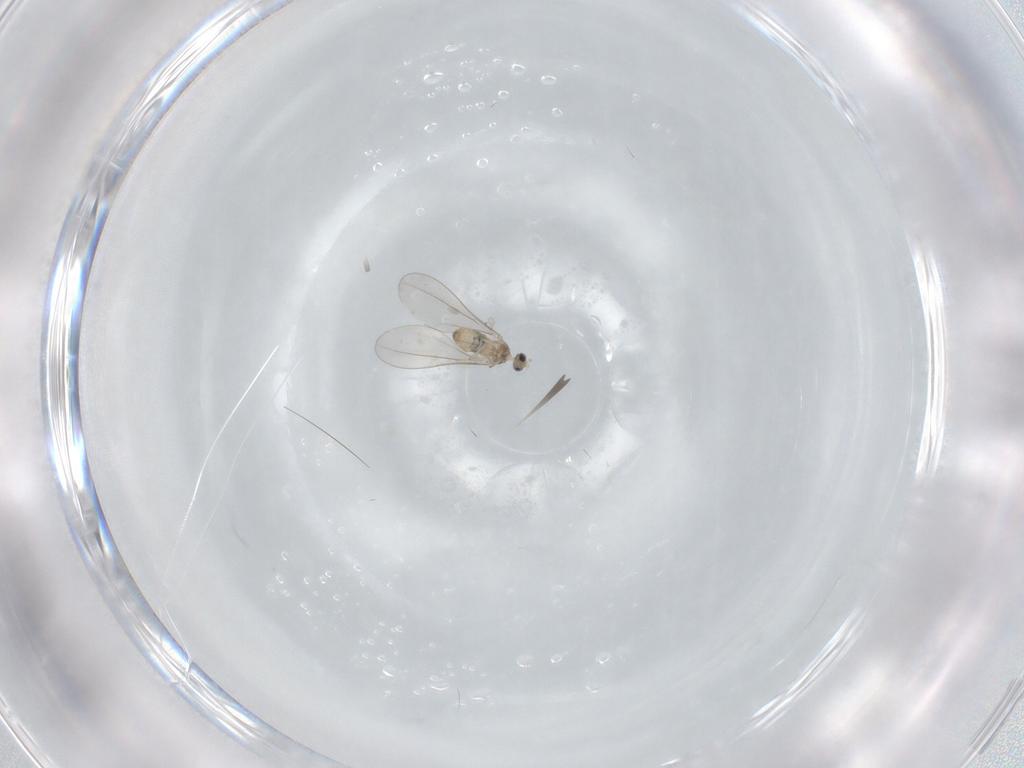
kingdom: Animalia
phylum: Arthropoda
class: Insecta
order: Diptera
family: Cecidomyiidae
